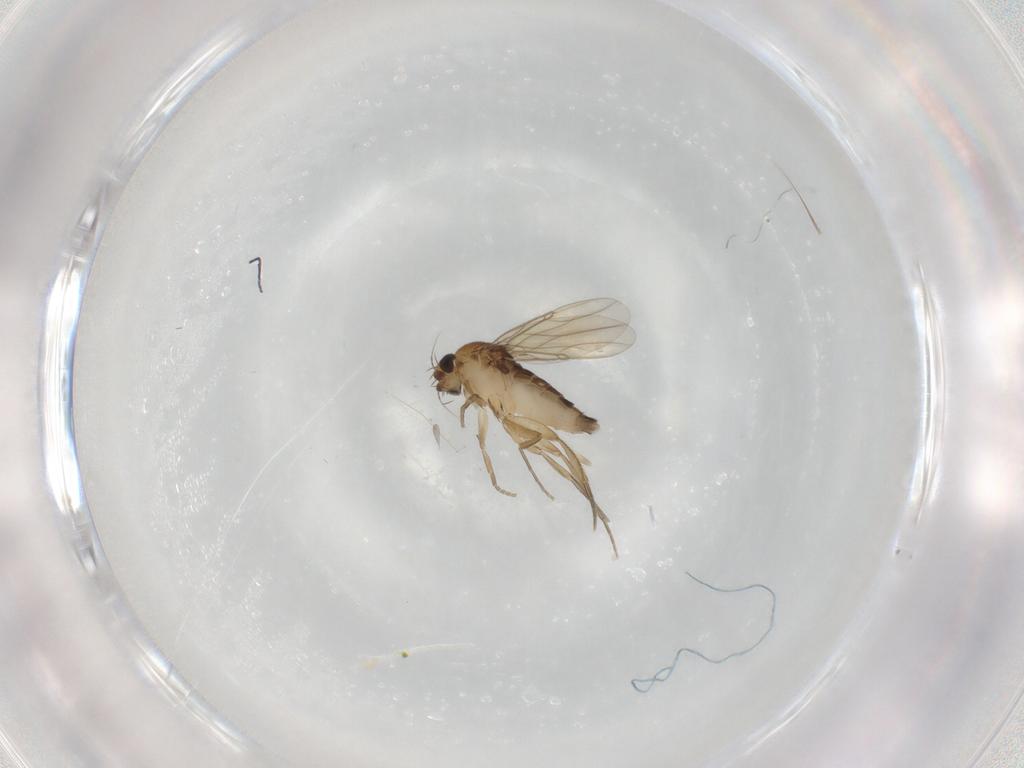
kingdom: Animalia
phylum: Arthropoda
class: Insecta
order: Diptera
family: Phoridae
